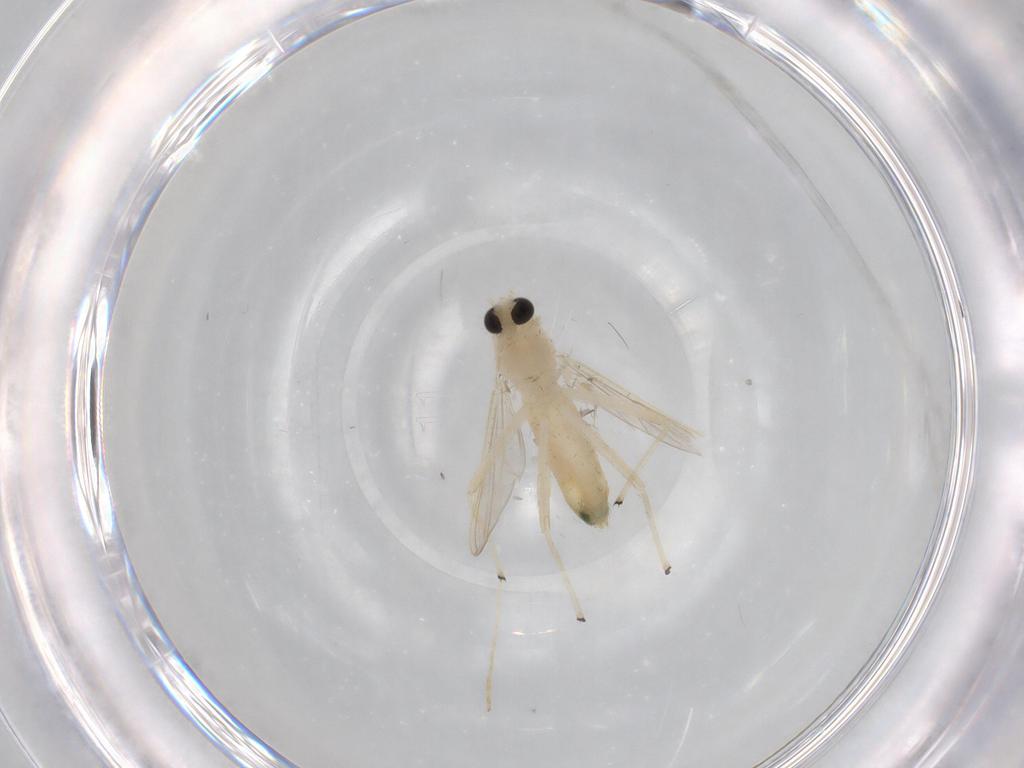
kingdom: Animalia
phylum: Arthropoda
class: Insecta
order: Diptera
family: Chironomidae
